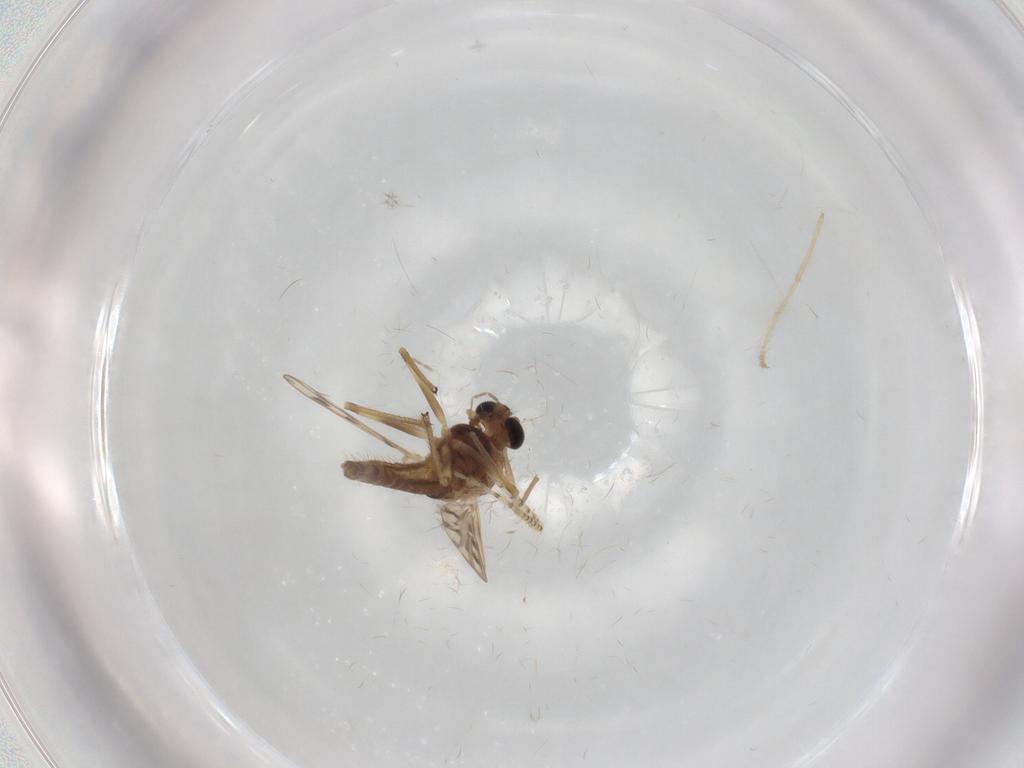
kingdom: Animalia
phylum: Arthropoda
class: Insecta
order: Diptera
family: Chironomidae
